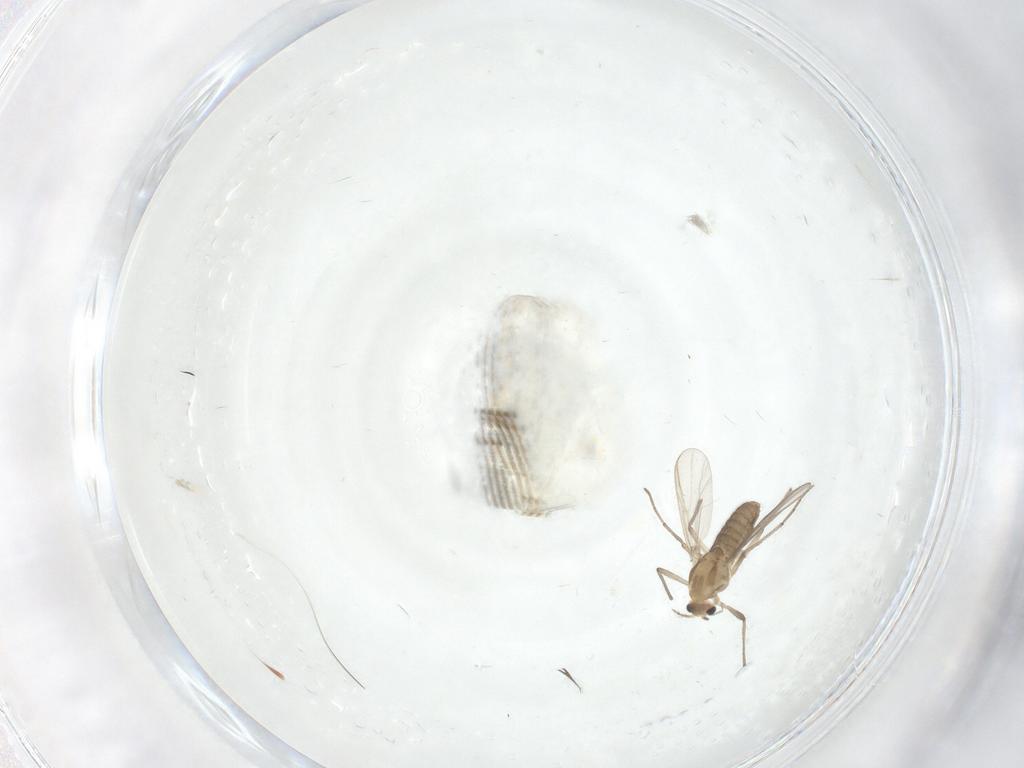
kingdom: Animalia
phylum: Arthropoda
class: Insecta
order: Diptera
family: Chironomidae
